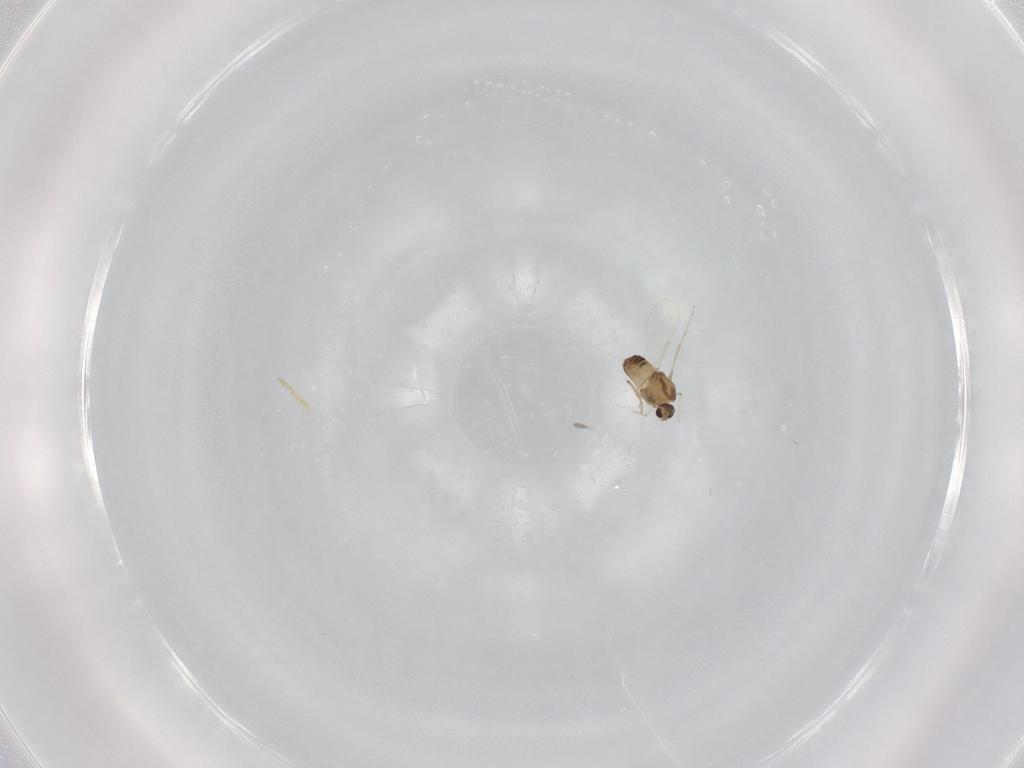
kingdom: Animalia
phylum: Arthropoda
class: Insecta
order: Diptera
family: Chironomidae
